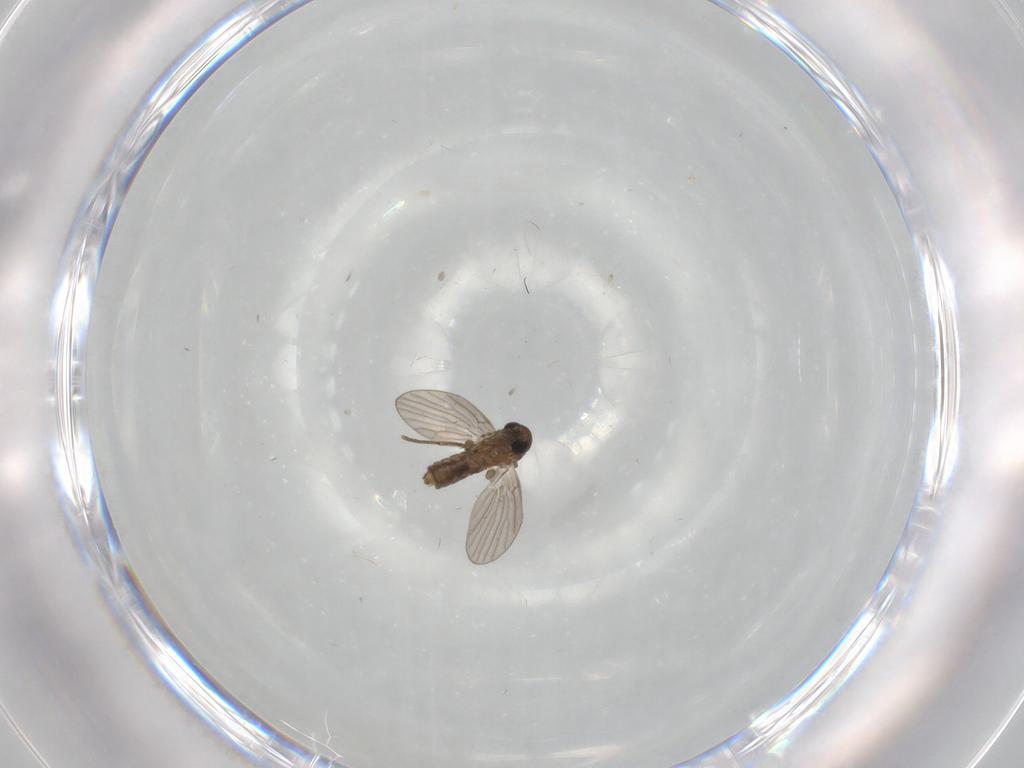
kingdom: Animalia
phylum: Arthropoda
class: Insecta
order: Diptera
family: Psychodidae
